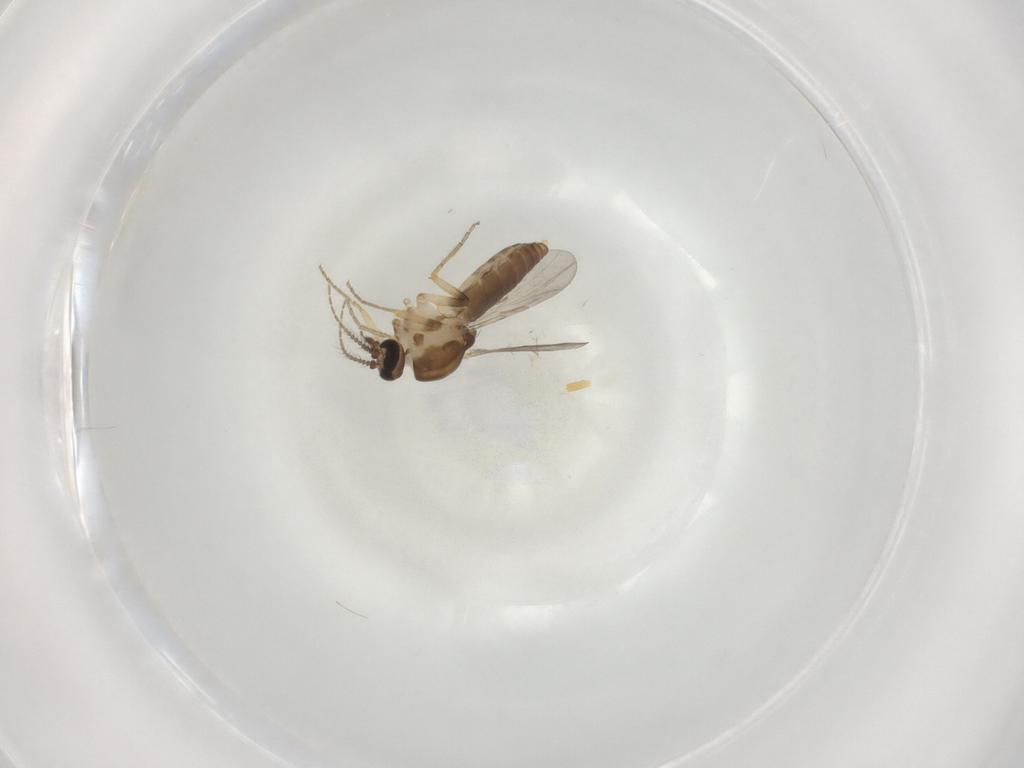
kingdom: Animalia
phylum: Arthropoda
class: Insecta
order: Diptera
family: Ceratopogonidae
